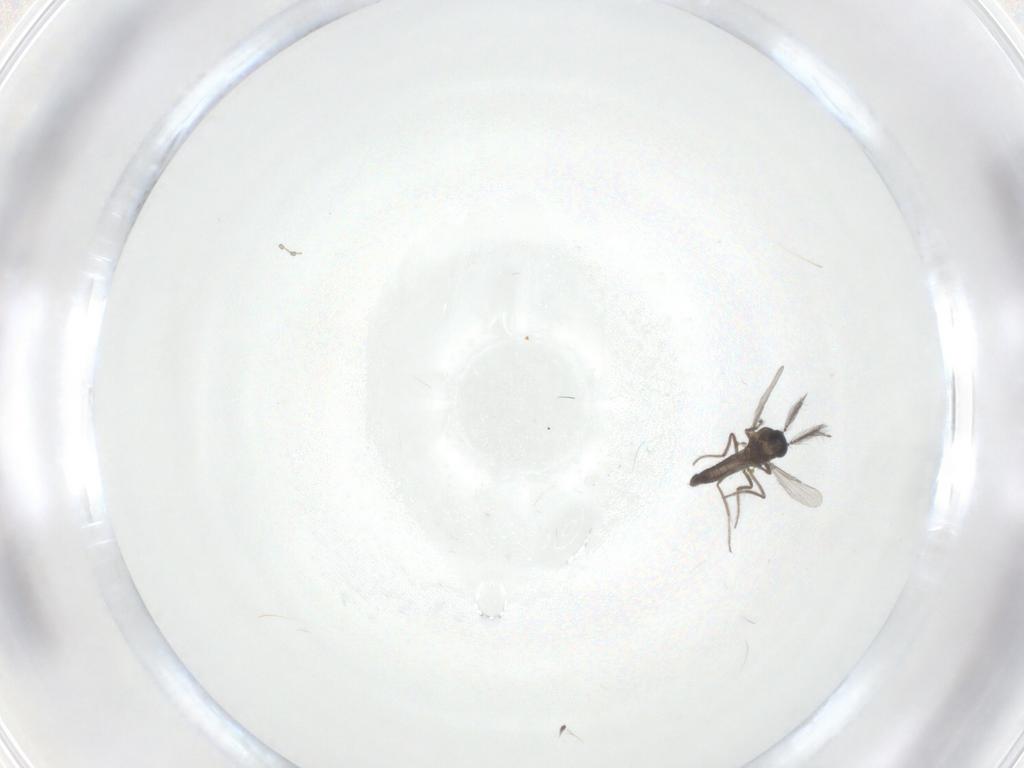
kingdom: Animalia
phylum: Arthropoda
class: Insecta
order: Diptera
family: Ceratopogonidae
